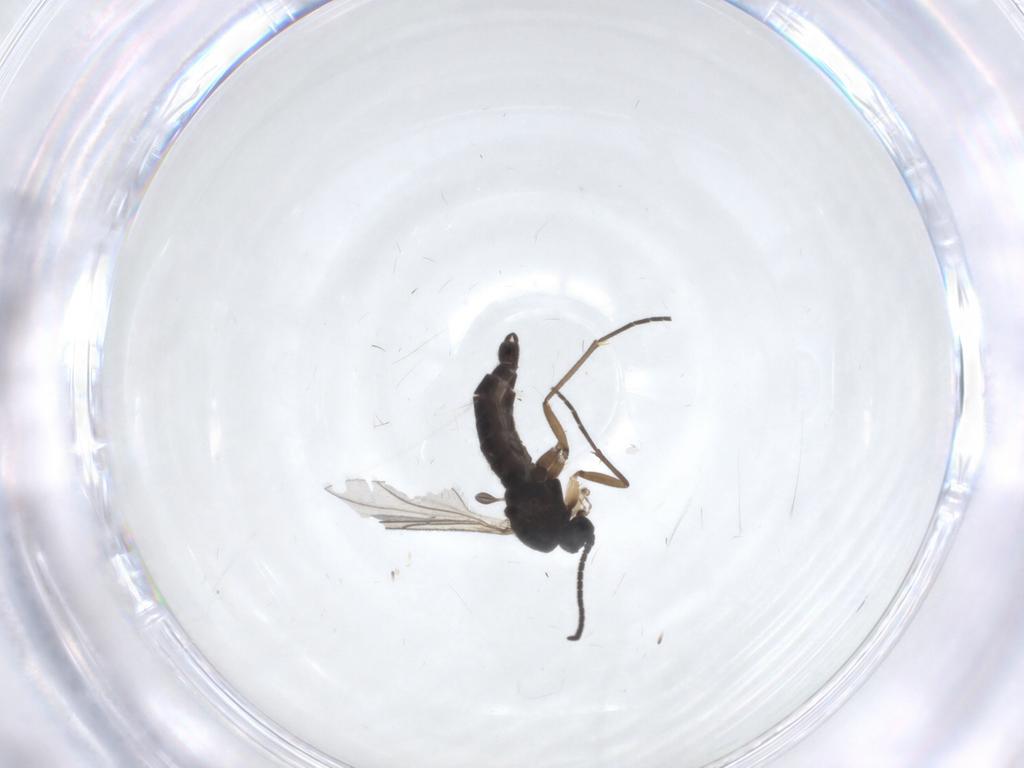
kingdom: Animalia
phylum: Arthropoda
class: Insecta
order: Diptera
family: Sciaridae
